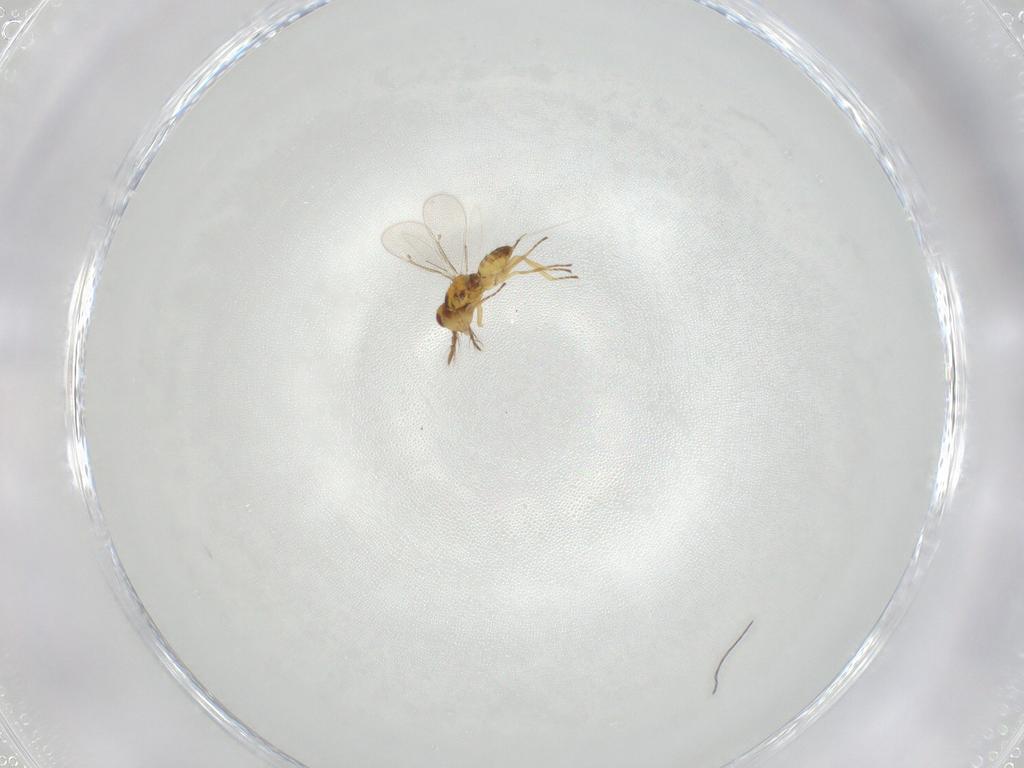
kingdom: Animalia
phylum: Arthropoda
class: Insecta
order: Hymenoptera
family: Eulophidae
